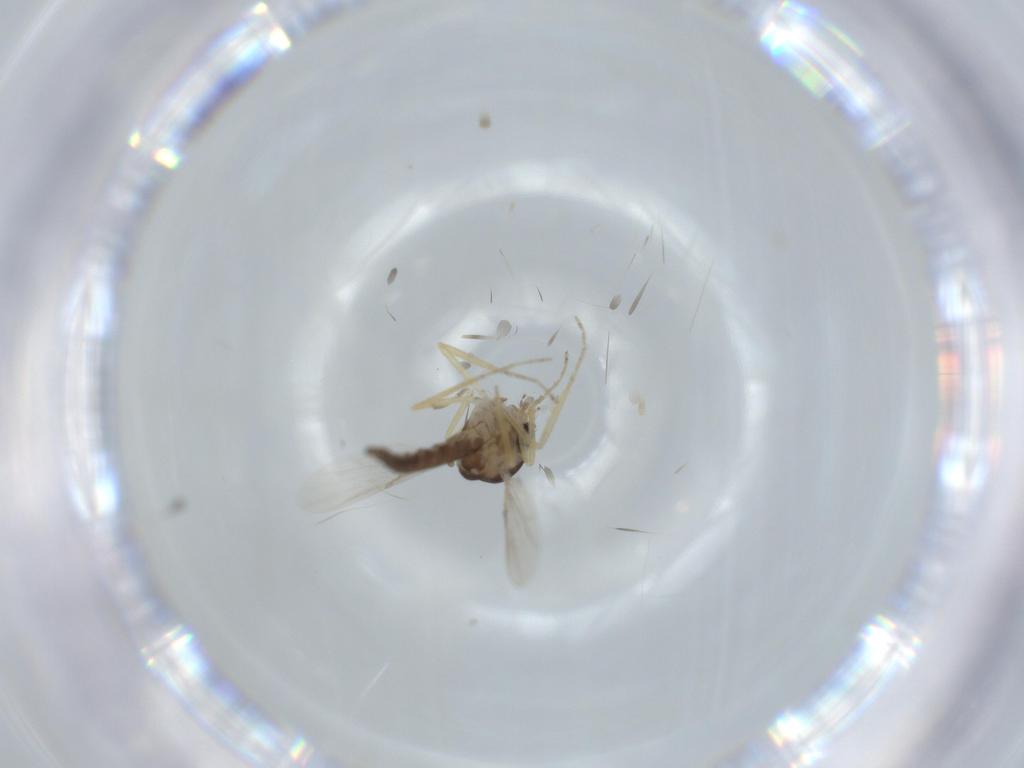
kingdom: Animalia
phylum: Arthropoda
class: Insecta
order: Diptera
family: Ceratopogonidae
